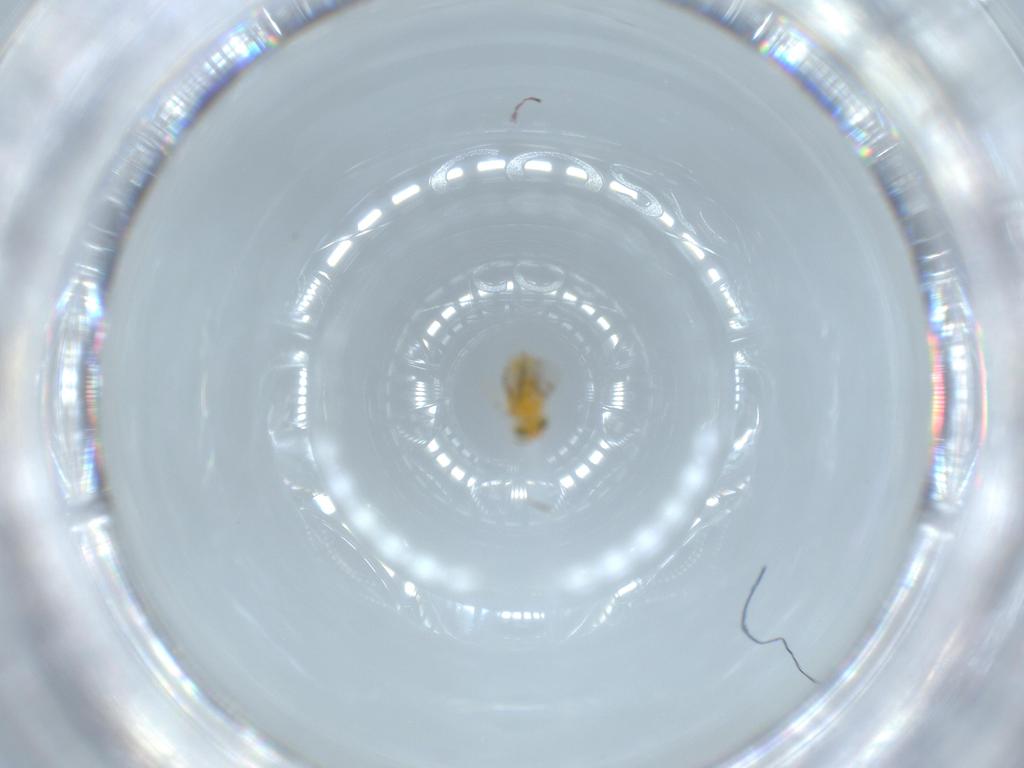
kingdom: Animalia
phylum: Arthropoda
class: Insecta
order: Hymenoptera
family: Aphelinidae
